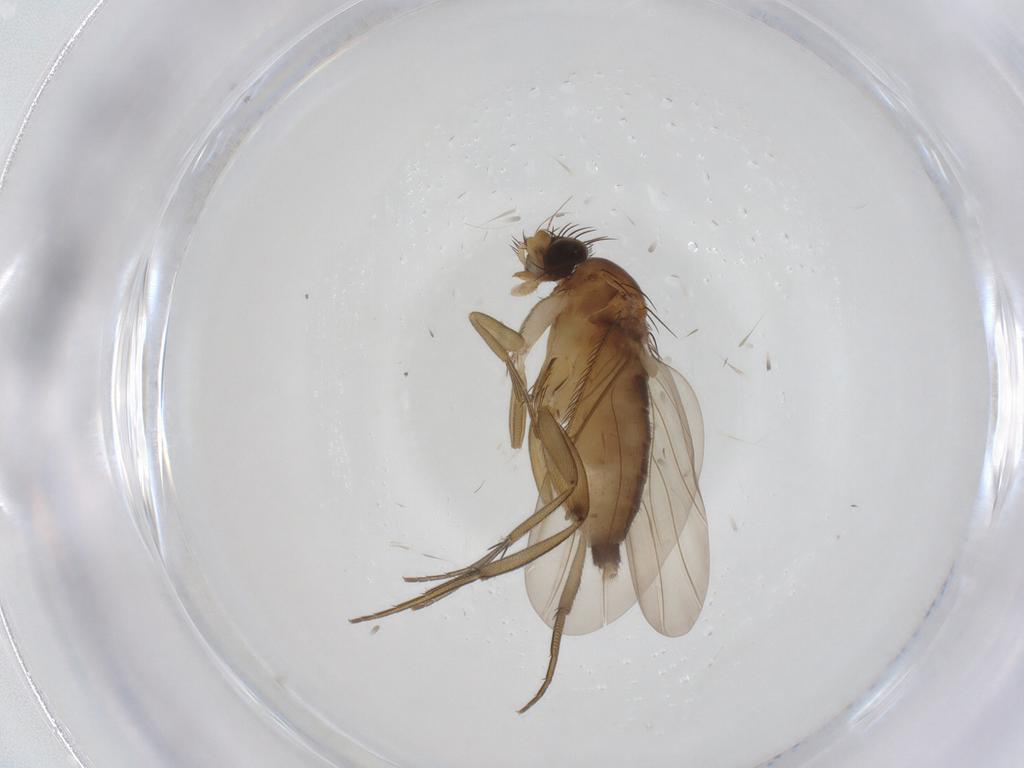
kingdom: Animalia
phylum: Arthropoda
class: Insecta
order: Diptera
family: Phoridae
